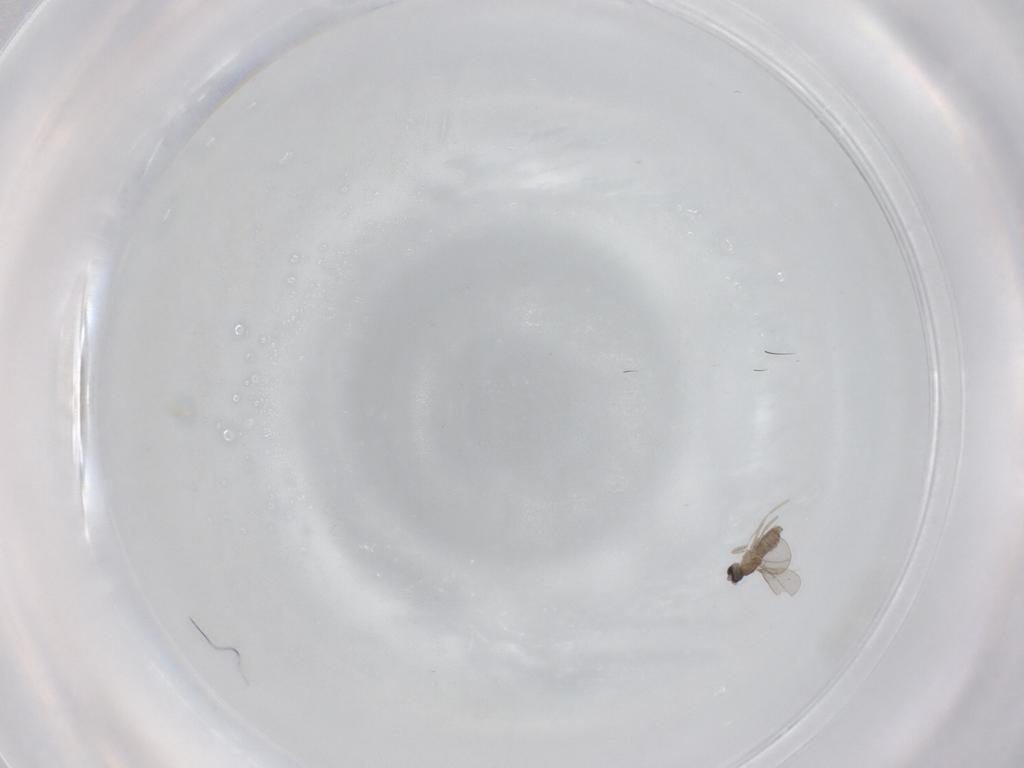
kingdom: Animalia
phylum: Arthropoda
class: Insecta
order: Diptera
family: Cecidomyiidae
